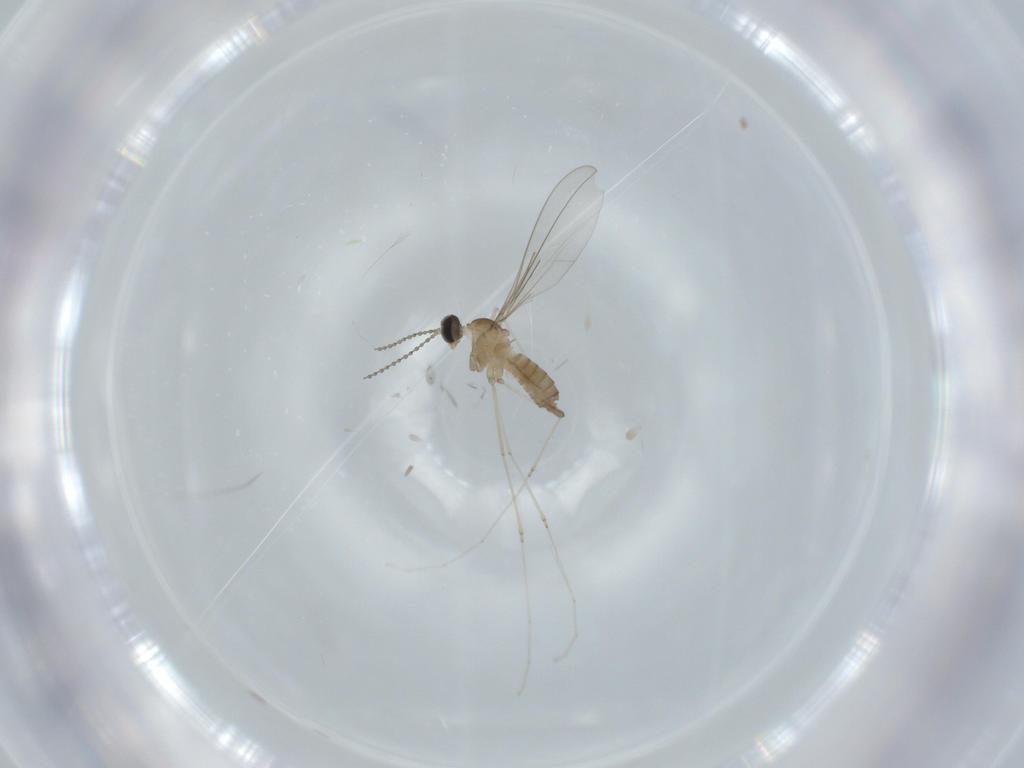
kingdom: Animalia
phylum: Arthropoda
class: Insecta
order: Diptera
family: Cecidomyiidae
